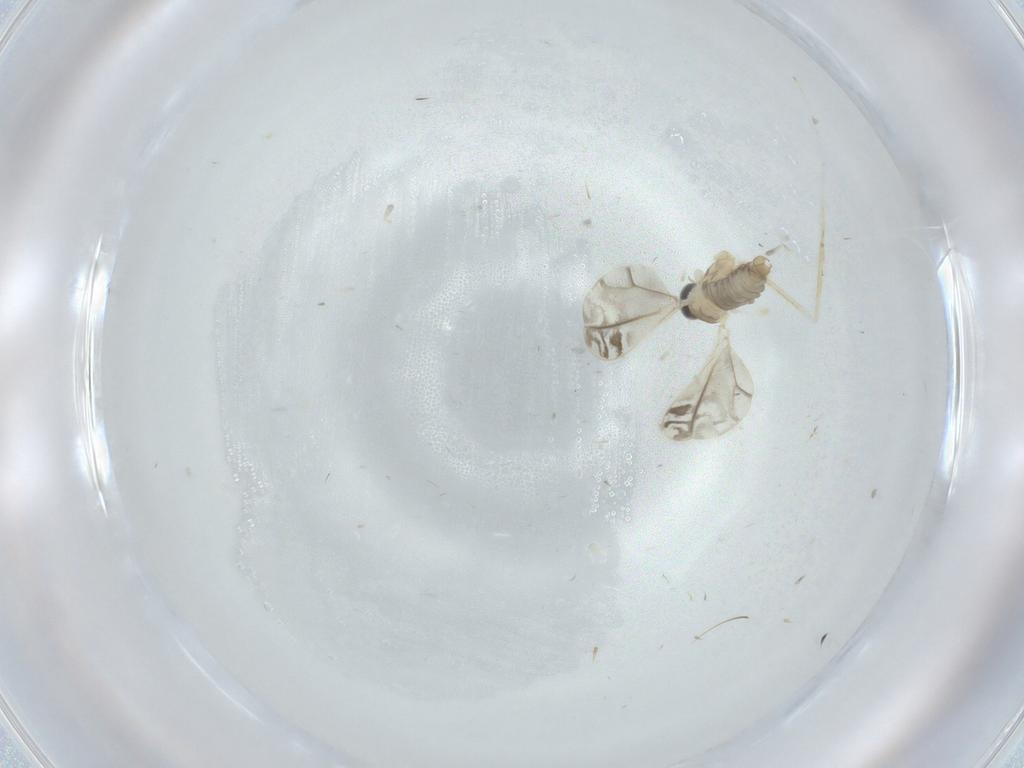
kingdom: Animalia
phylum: Arthropoda
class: Insecta
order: Diptera
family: Cecidomyiidae
